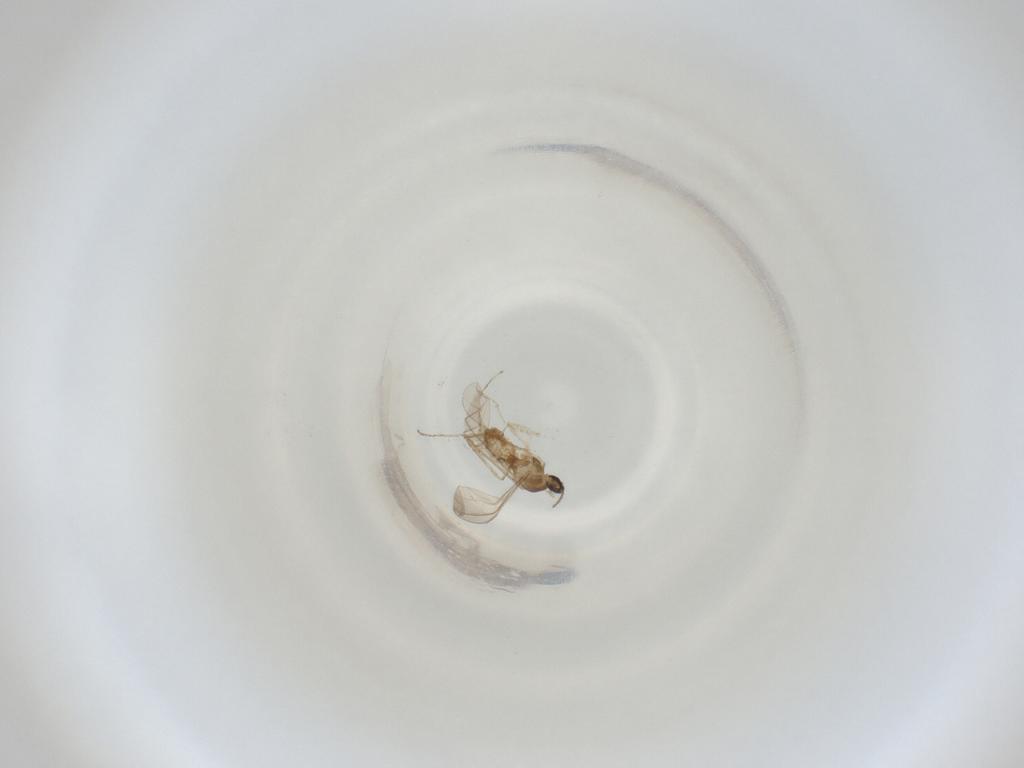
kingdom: Animalia
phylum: Arthropoda
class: Insecta
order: Diptera
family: Cecidomyiidae
